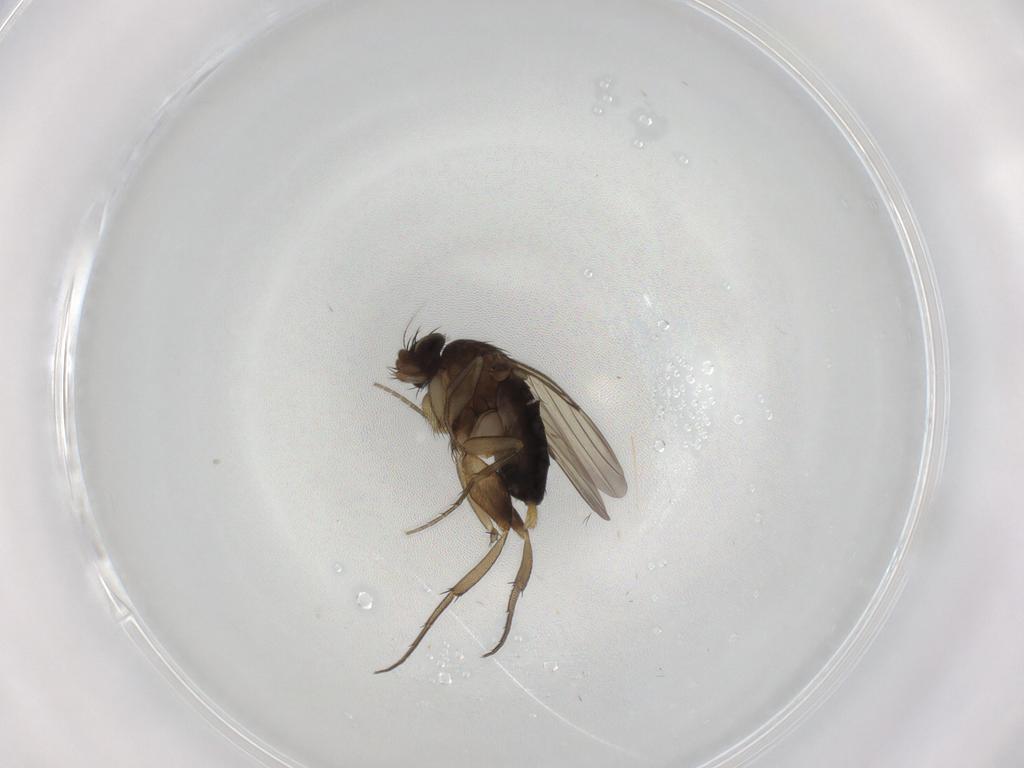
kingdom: Animalia
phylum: Arthropoda
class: Insecta
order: Diptera
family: Phoridae
